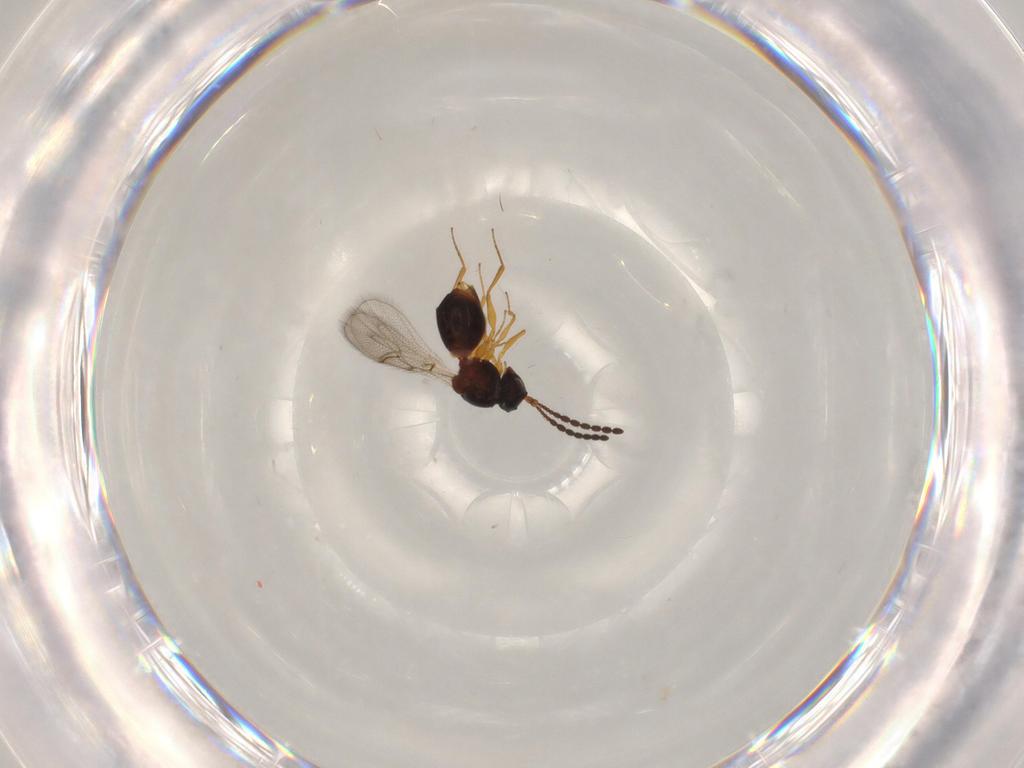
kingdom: Animalia
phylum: Arthropoda
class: Insecta
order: Hymenoptera
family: Figitidae
